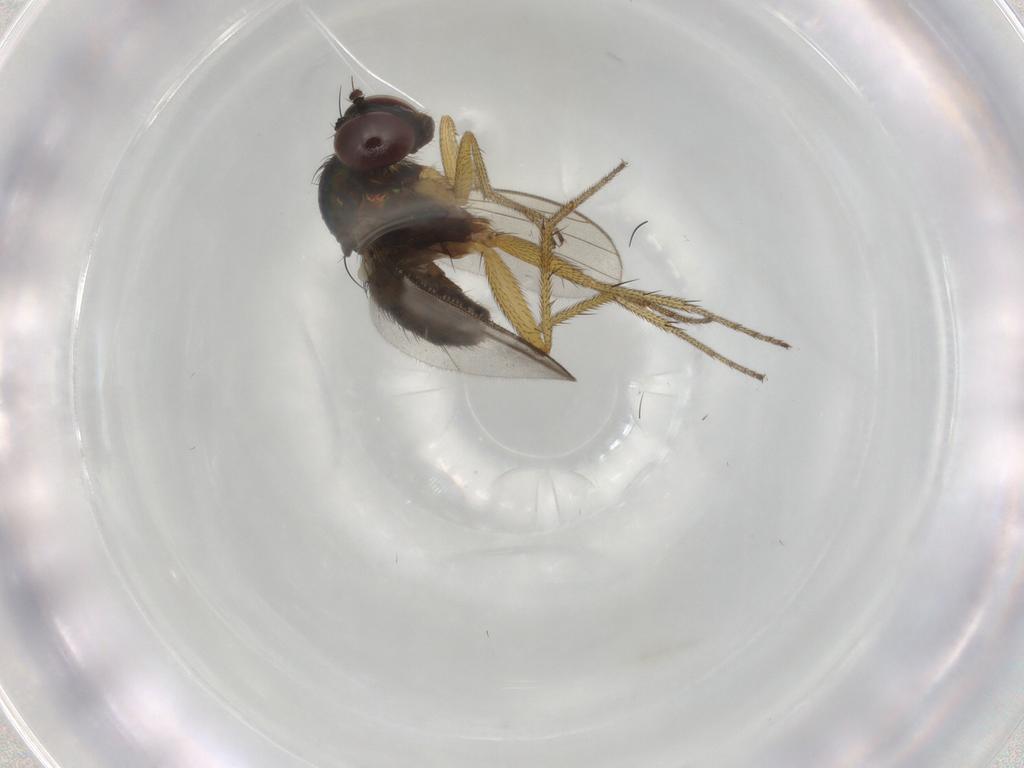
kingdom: Animalia
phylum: Arthropoda
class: Insecta
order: Diptera
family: Dolichopodidae
